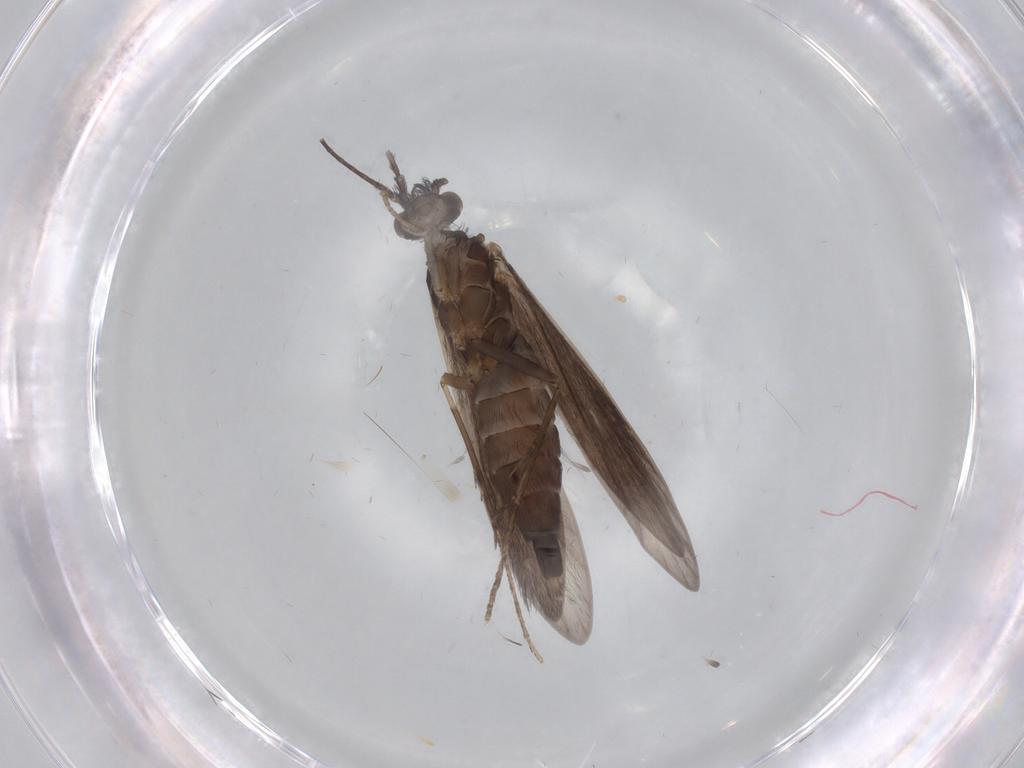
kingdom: Animalia
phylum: Arthropoda
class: Insecta
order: Trichoptera
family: Xiphocentronidae
